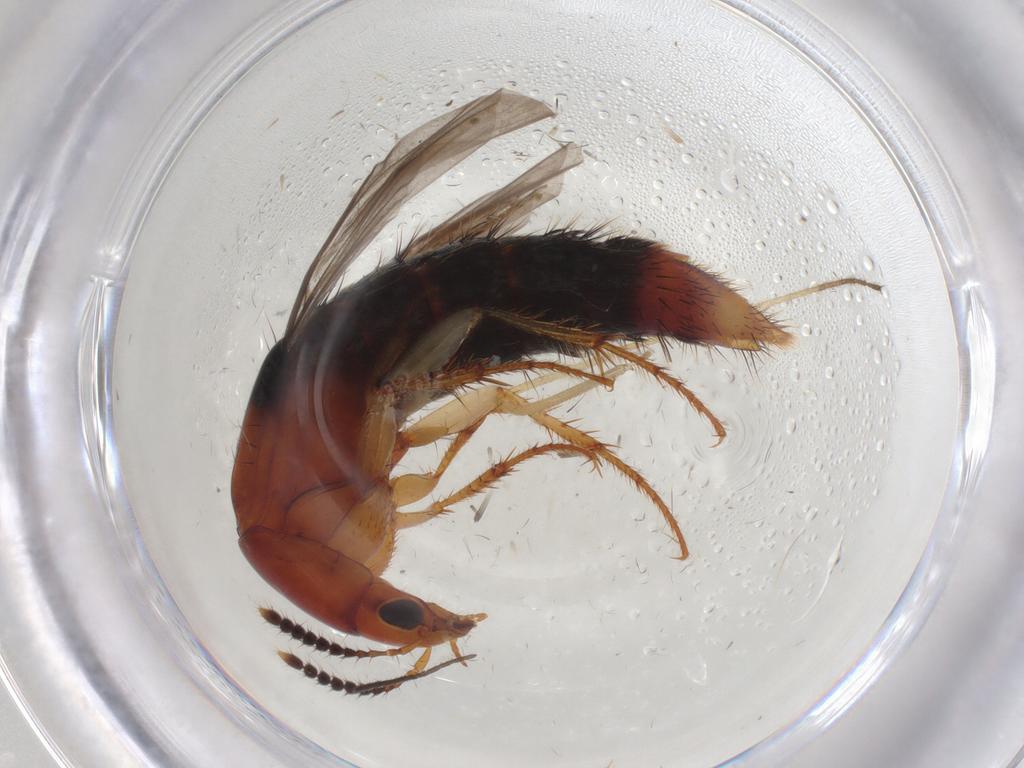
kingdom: Animalia
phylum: Arthropoda
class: Insecta
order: Coleoptera
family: Staphylinidae
